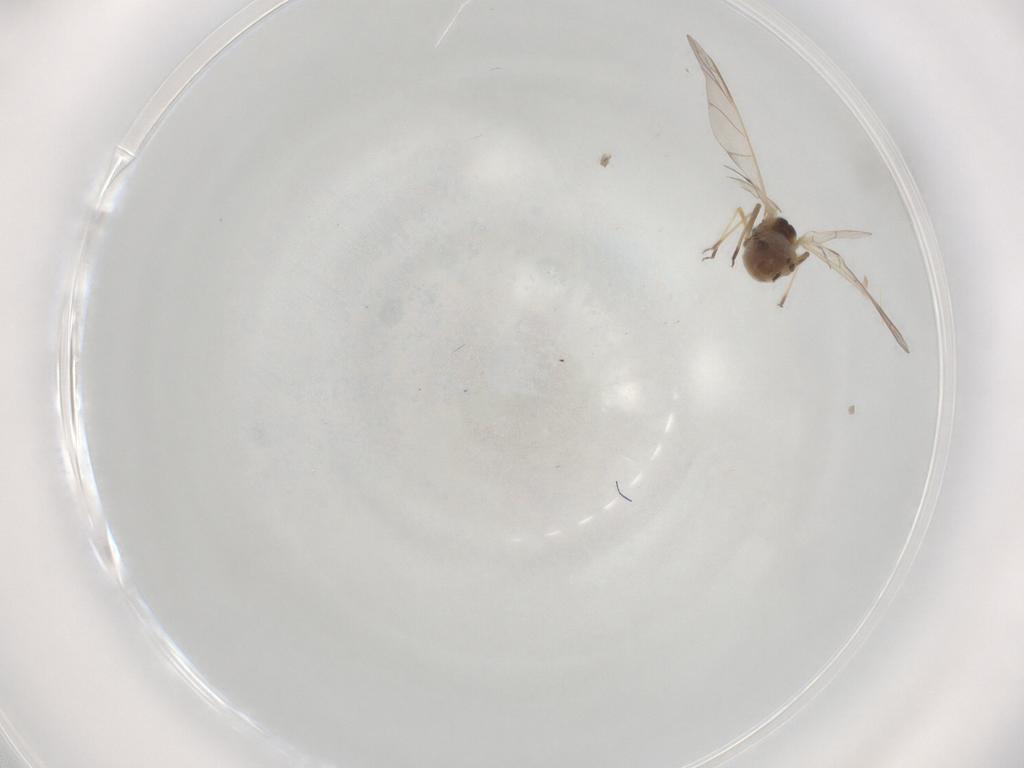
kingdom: Animalia
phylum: Arthropoda
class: Insecta
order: Hemiptera
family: Aphididae
